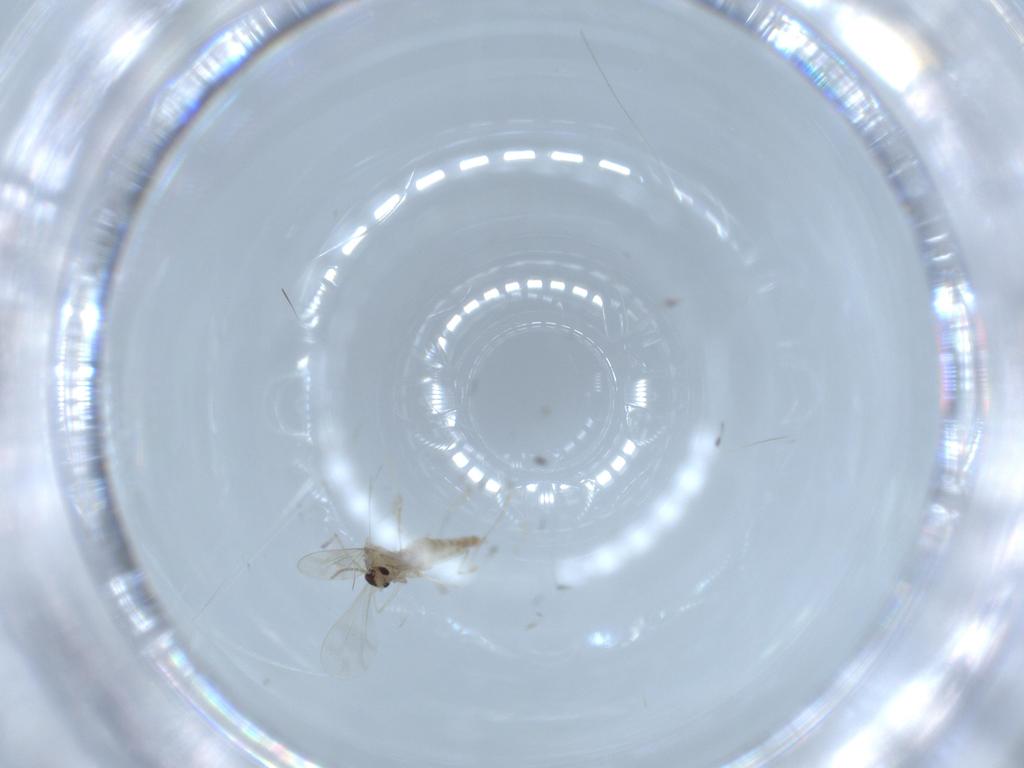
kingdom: Animalia
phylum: Arthropoda
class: Insecta
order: Diptera
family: Cecidomyiidae
